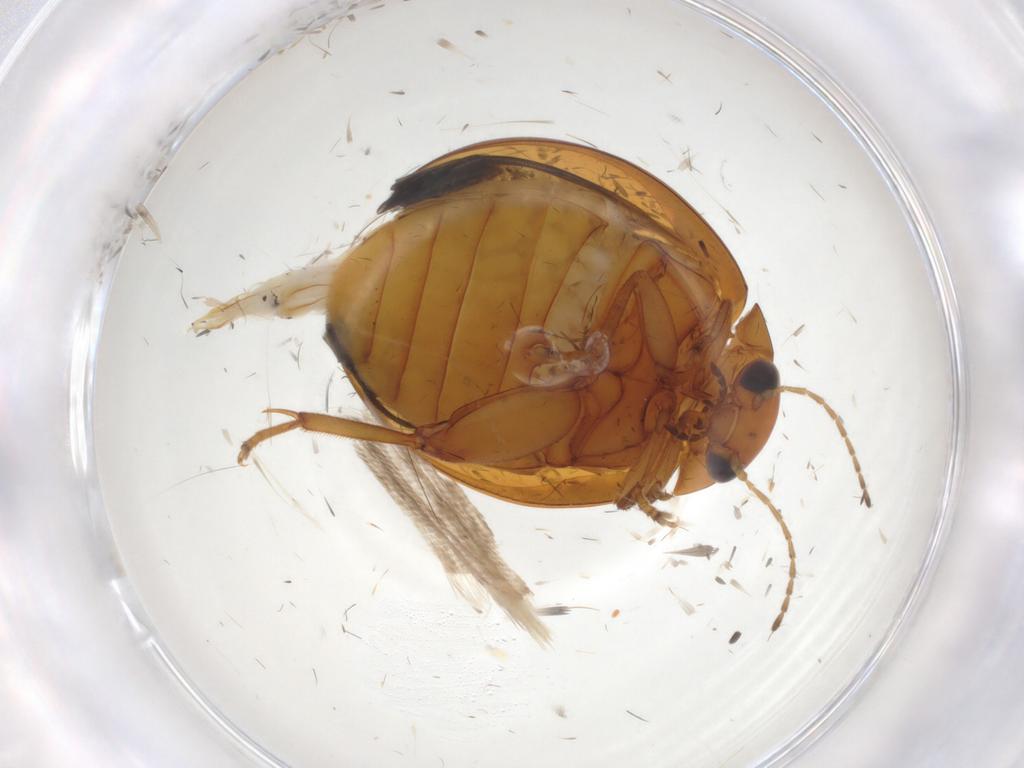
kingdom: Animalia
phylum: Arthropoda
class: Insecta
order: Coleoptera
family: Scirtidae
